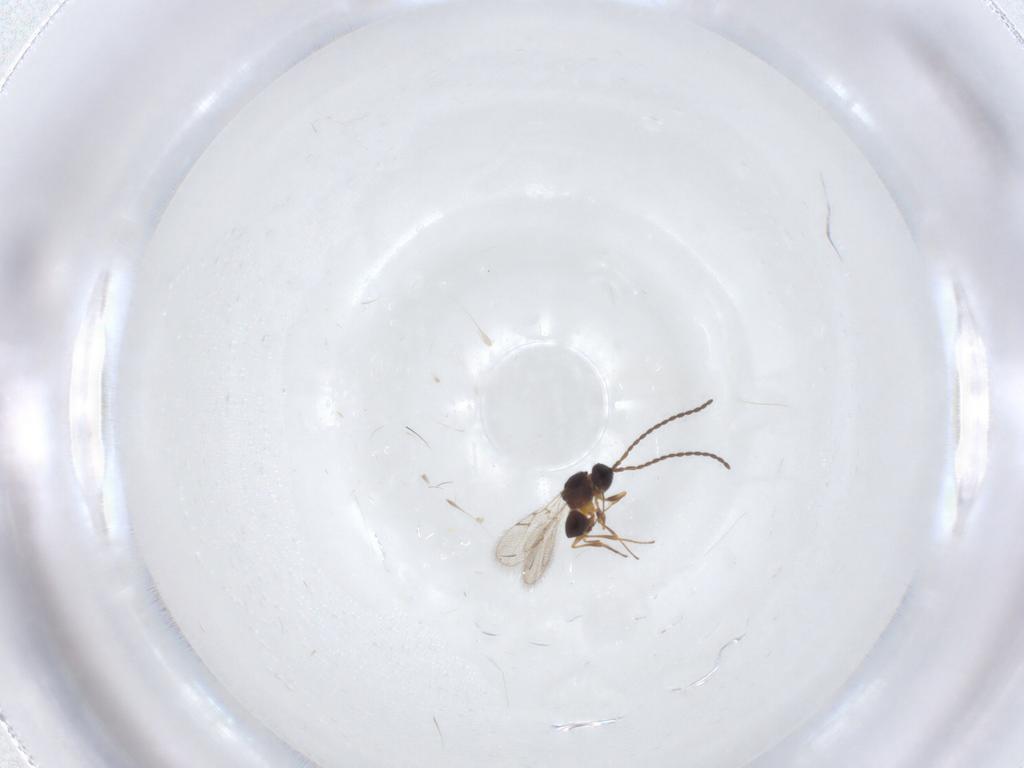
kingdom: Animalia
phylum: Arthropoda
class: Insecta
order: Hymenoptera
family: Figitidae
